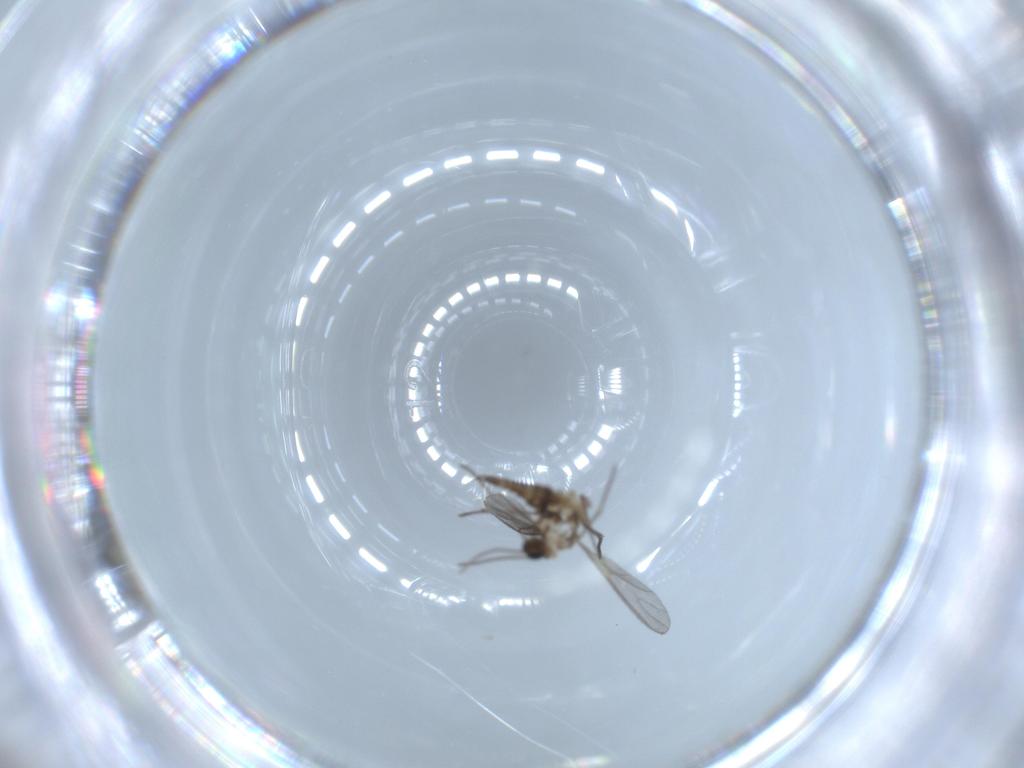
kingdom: Animalia
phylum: Arthropoda
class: Insecta
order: Diptera
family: Sciaridae
